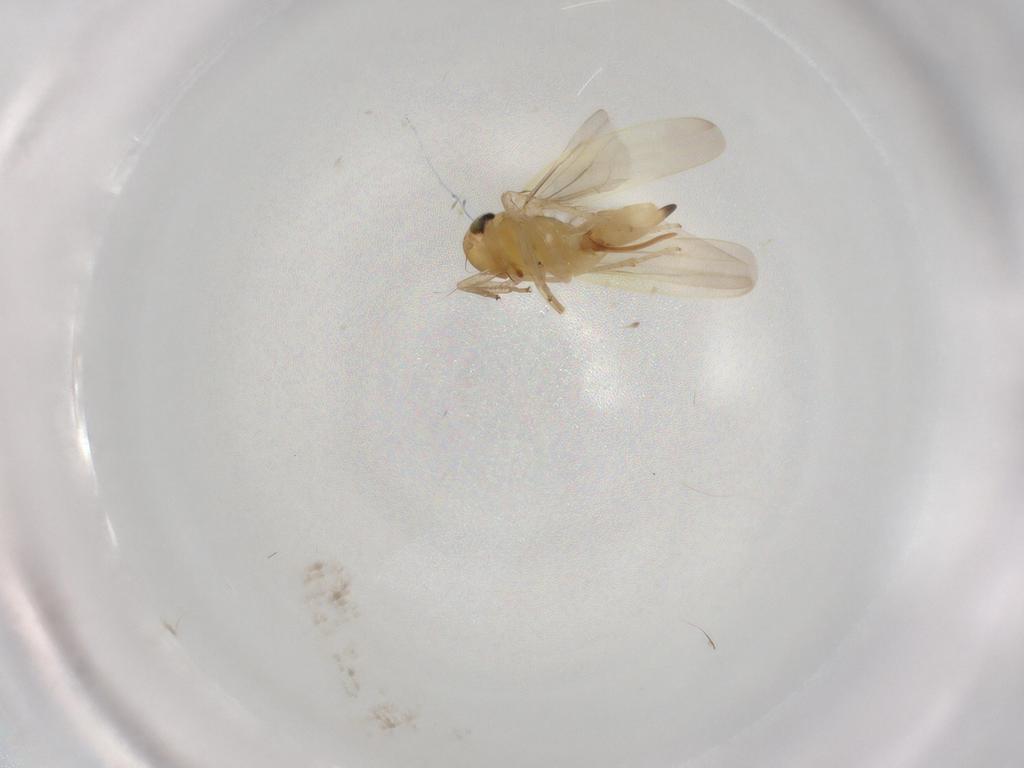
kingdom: Animalia
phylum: Arthropoda
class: Insecta
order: Hemiptera
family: Cicadellidae
